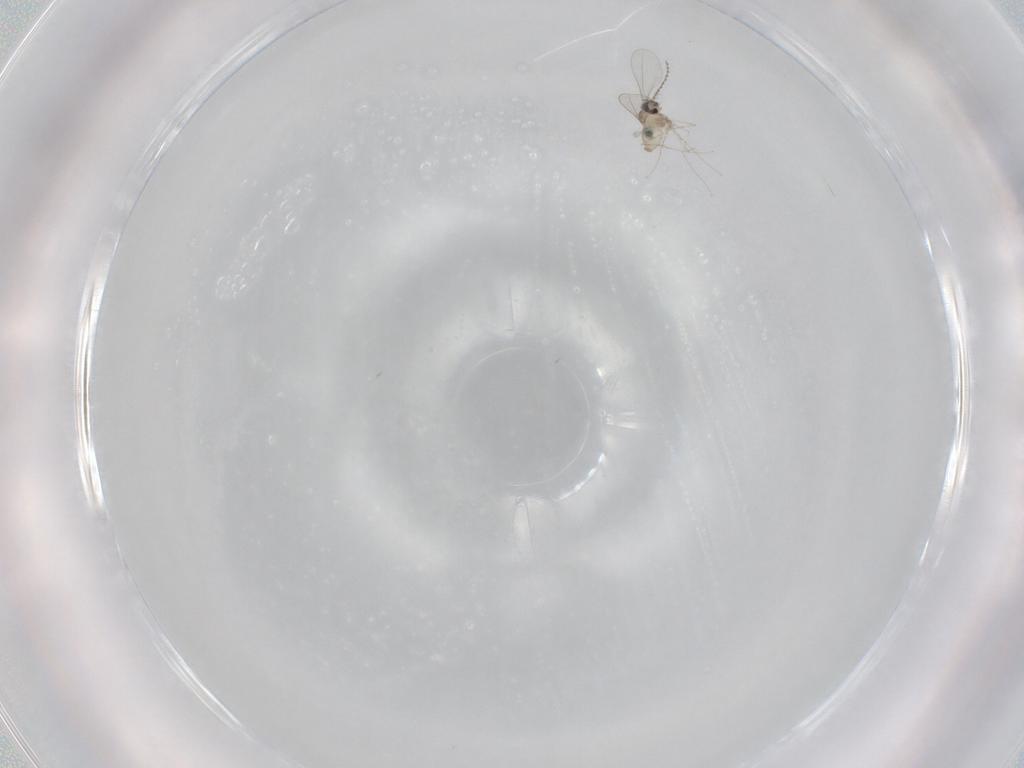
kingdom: Animalia
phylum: Arthropoda
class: Insecta
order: Diptera
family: Cecidomyiidae
